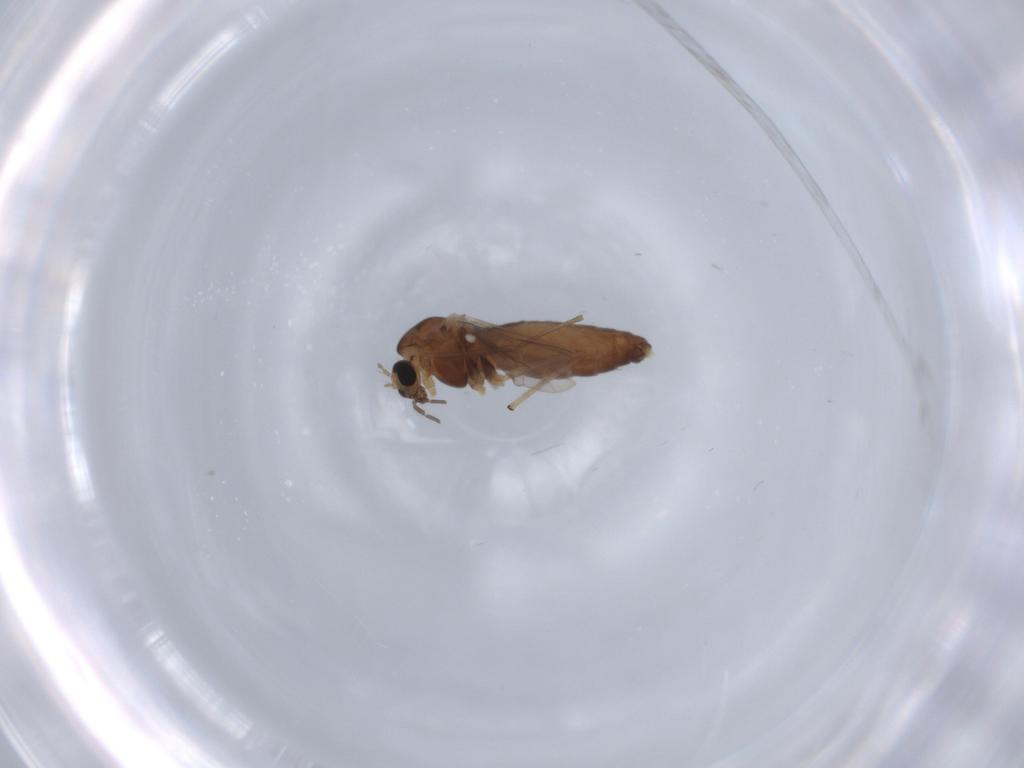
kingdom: Animalia
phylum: Arthropoda
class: Insecta
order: Diptera
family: Chironomidae
